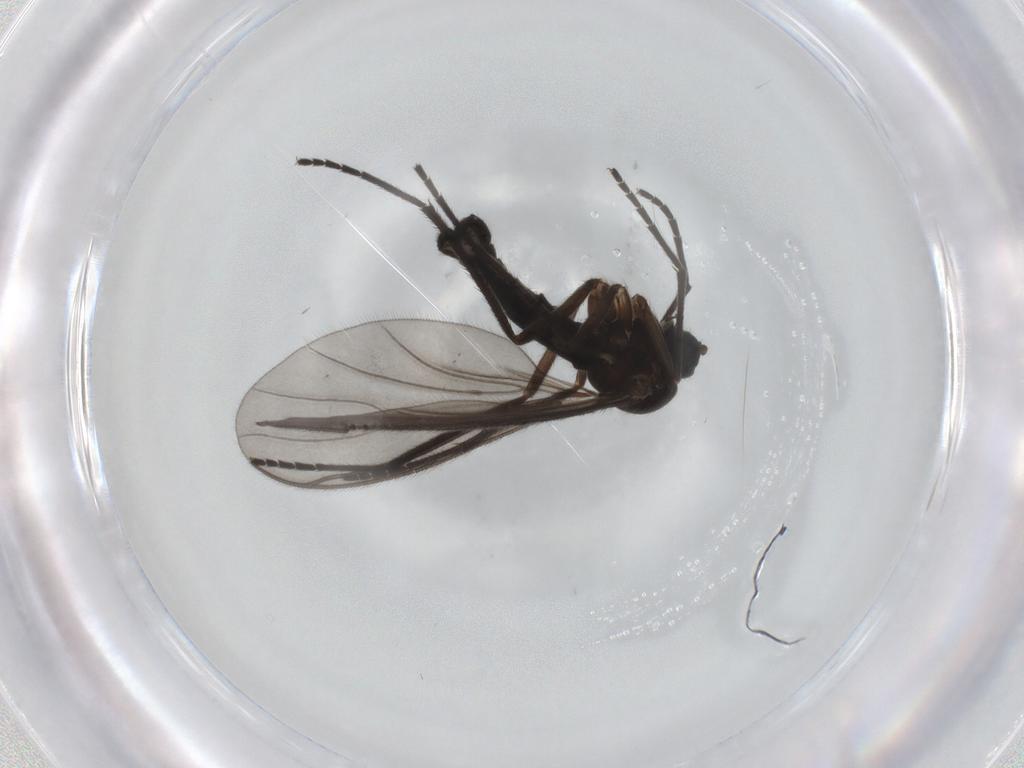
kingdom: Animalia
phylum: Arthropoda
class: Insecta
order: Diptera
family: Sciaridae
